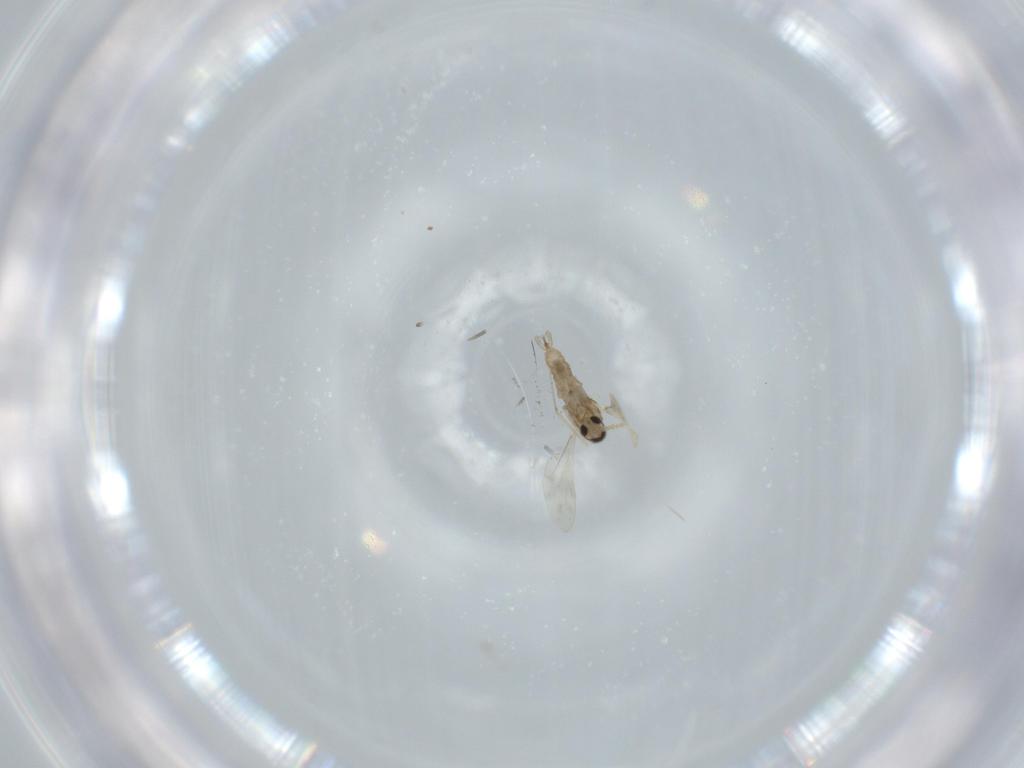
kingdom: Animalia
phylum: Arthropoda
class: Insecta
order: Diptera
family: Cecidomyiidae
